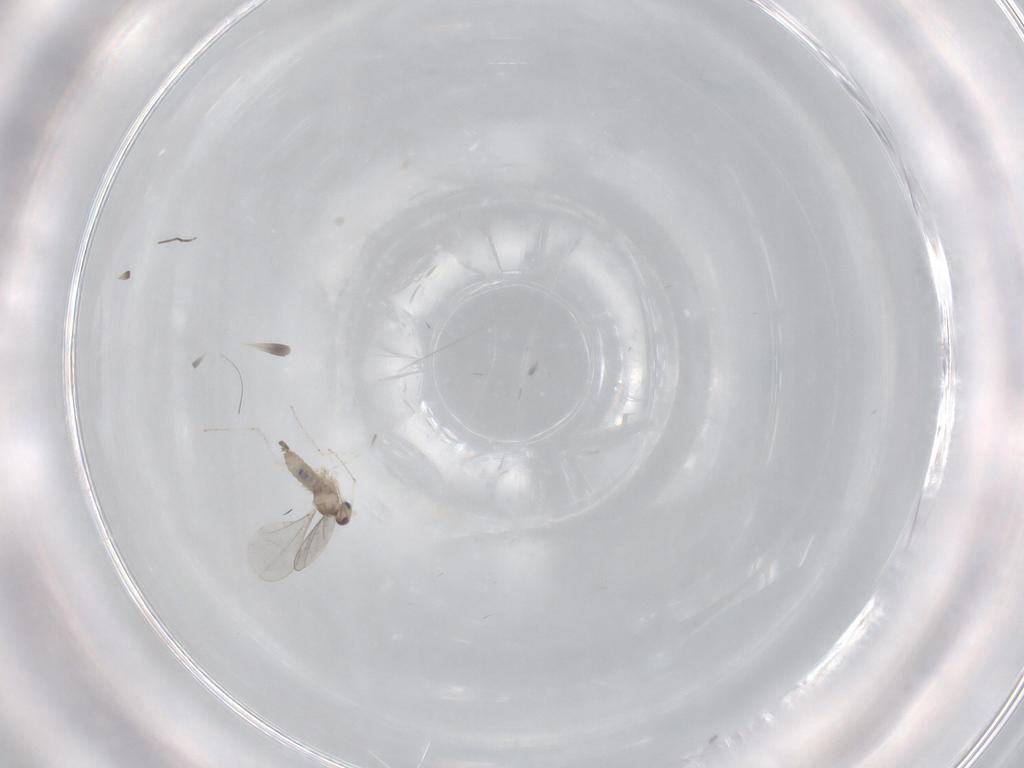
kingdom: Animalia
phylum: Arthropoda
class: Insecta
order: Diptera
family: Cecidomyiidae
